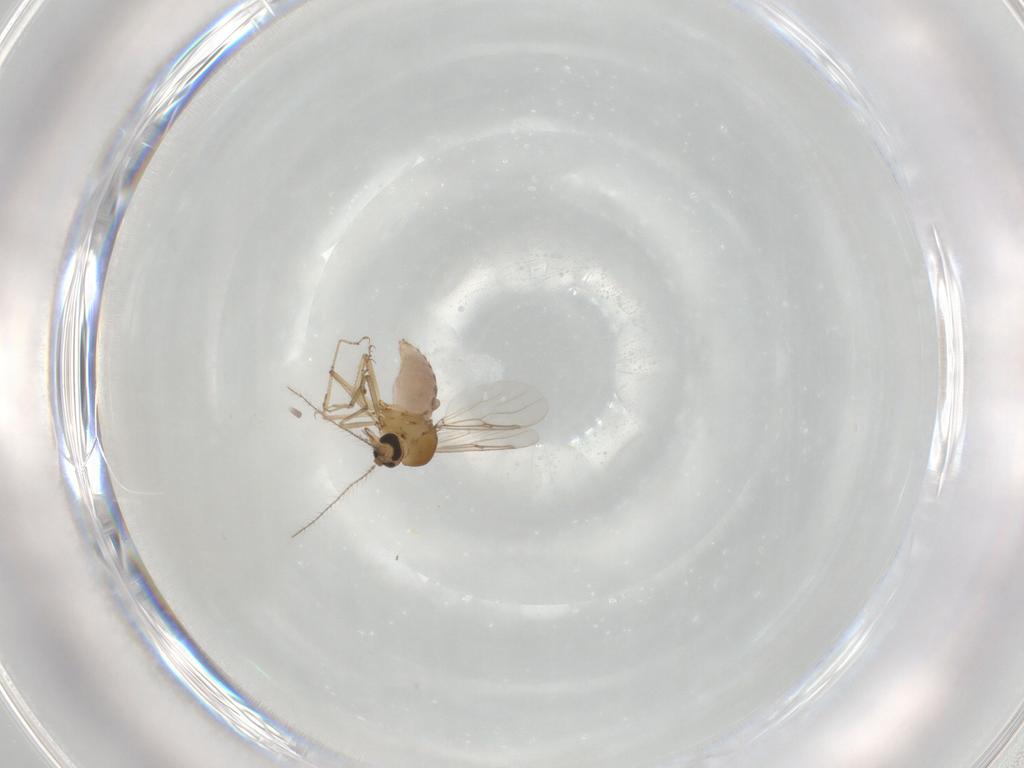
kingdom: Animalia
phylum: Arthropoda
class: Insecta
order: Diptera
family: Ceratopogonidae
